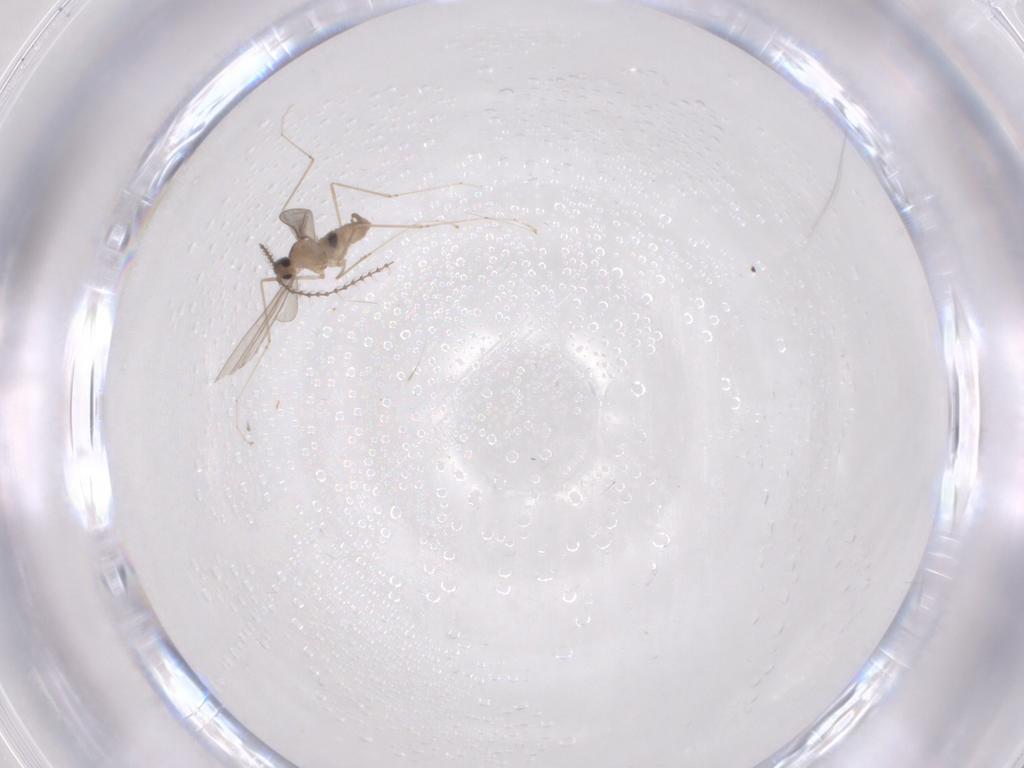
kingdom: Animalia
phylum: Arthropoda
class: Insecta
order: Diptera
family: Cecidomyiidae
